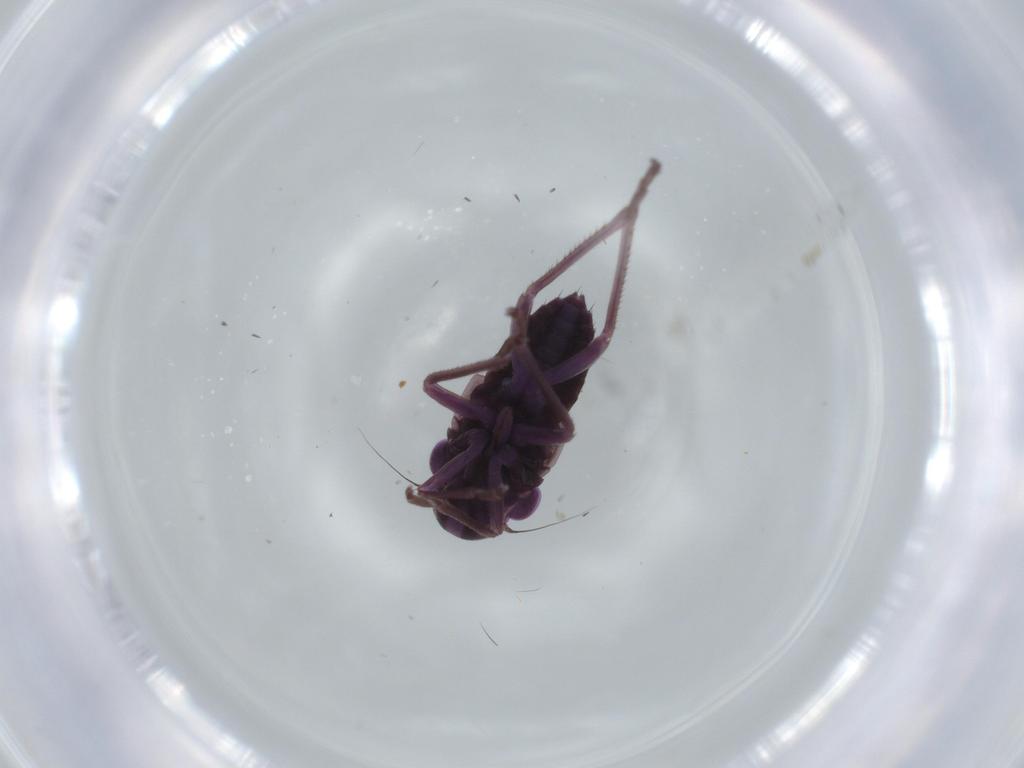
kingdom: Animalia
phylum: Arthropoda
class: Insecta
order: Hemiptera
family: Cicadellidae
